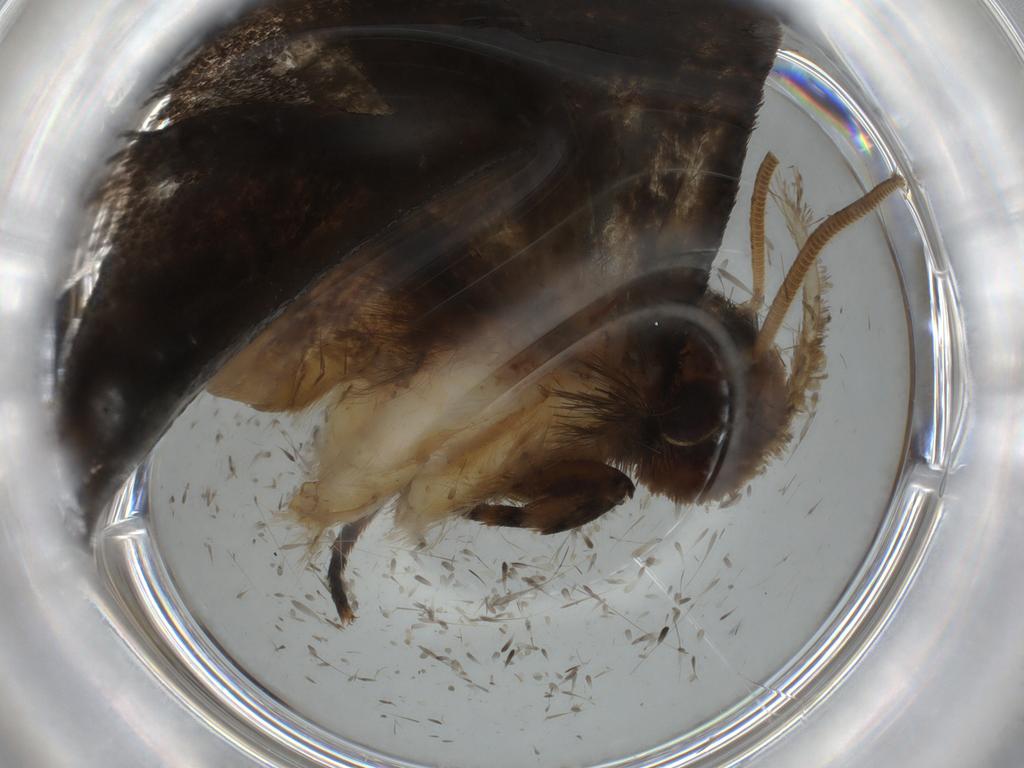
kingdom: Animalia
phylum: Arthropoda
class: Insecta
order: Lepidoptera
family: Tineidae
